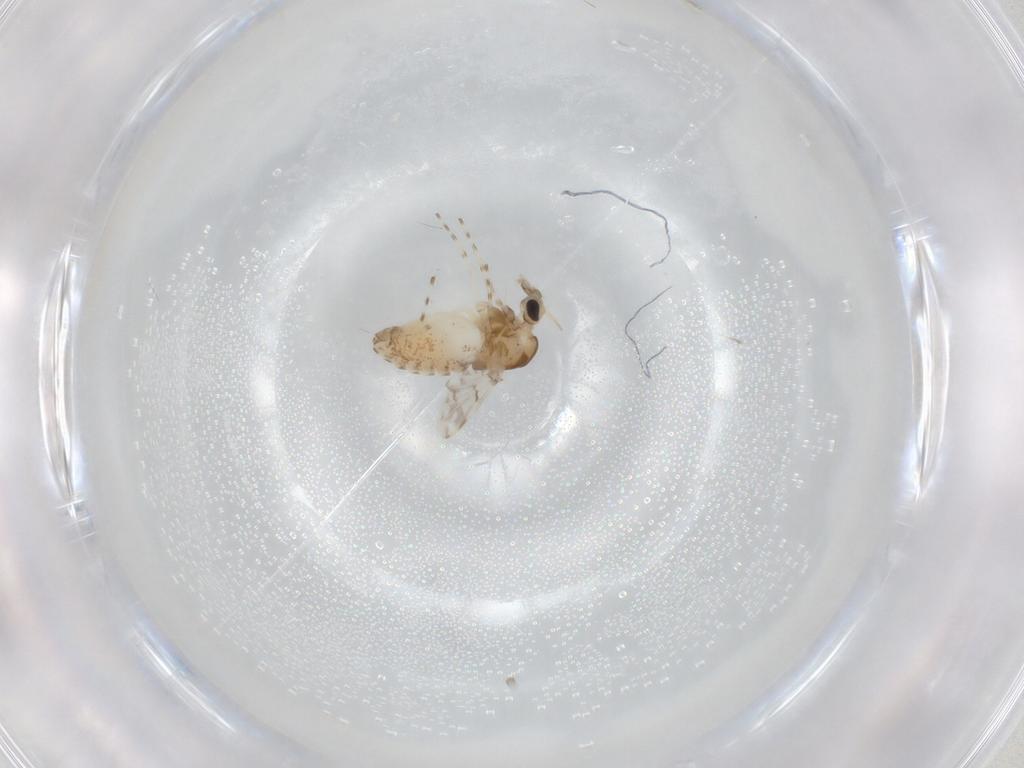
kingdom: Animalia
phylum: Arthropoda
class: Insecta
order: Diptera
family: Chironomidae
